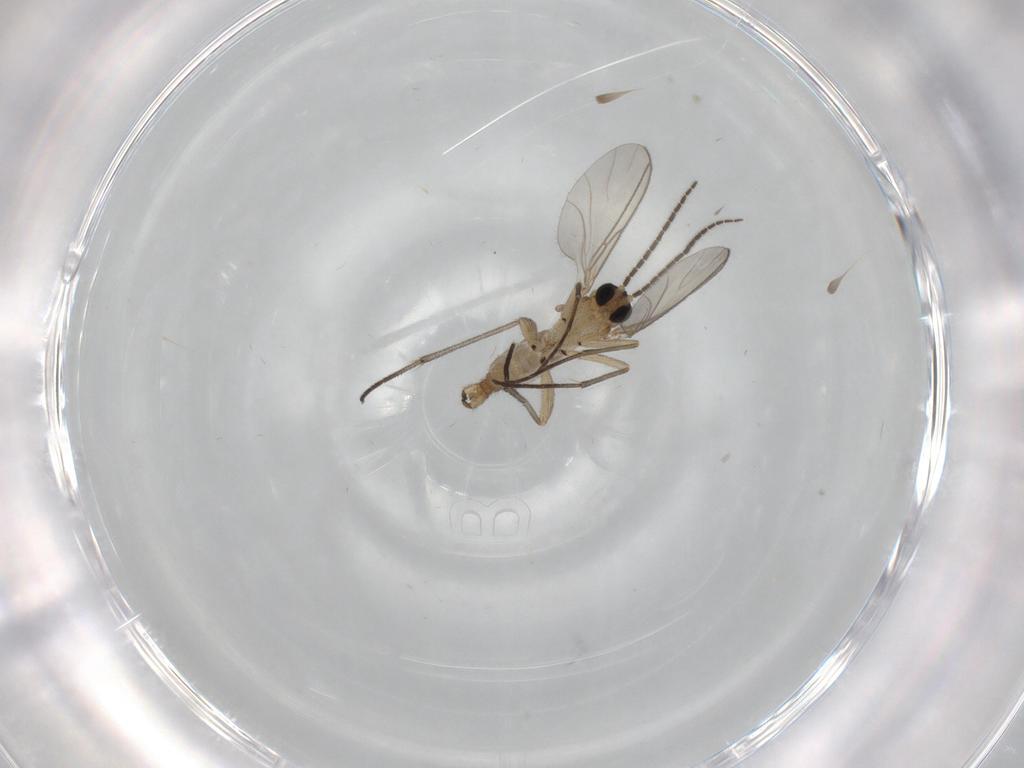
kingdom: Animalia
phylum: Arthropoda
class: Insecta
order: Diptera
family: Sciaridae
